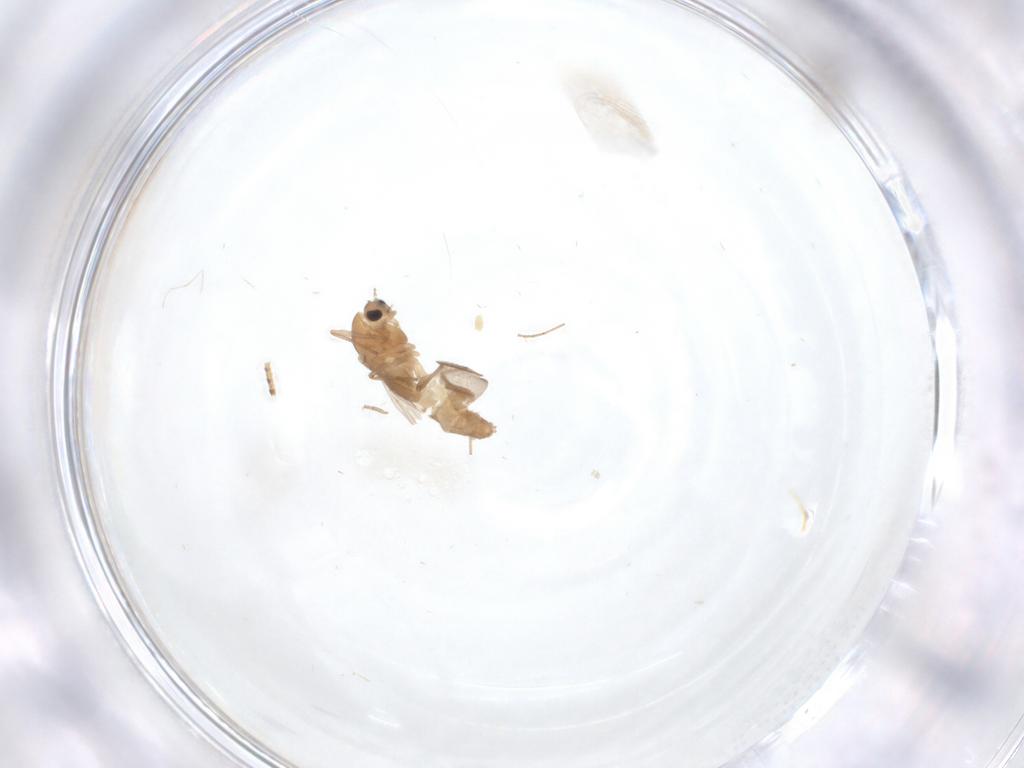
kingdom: Animalia
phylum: Arthropoda
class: Insecta
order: Diptera
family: Chironomidae
